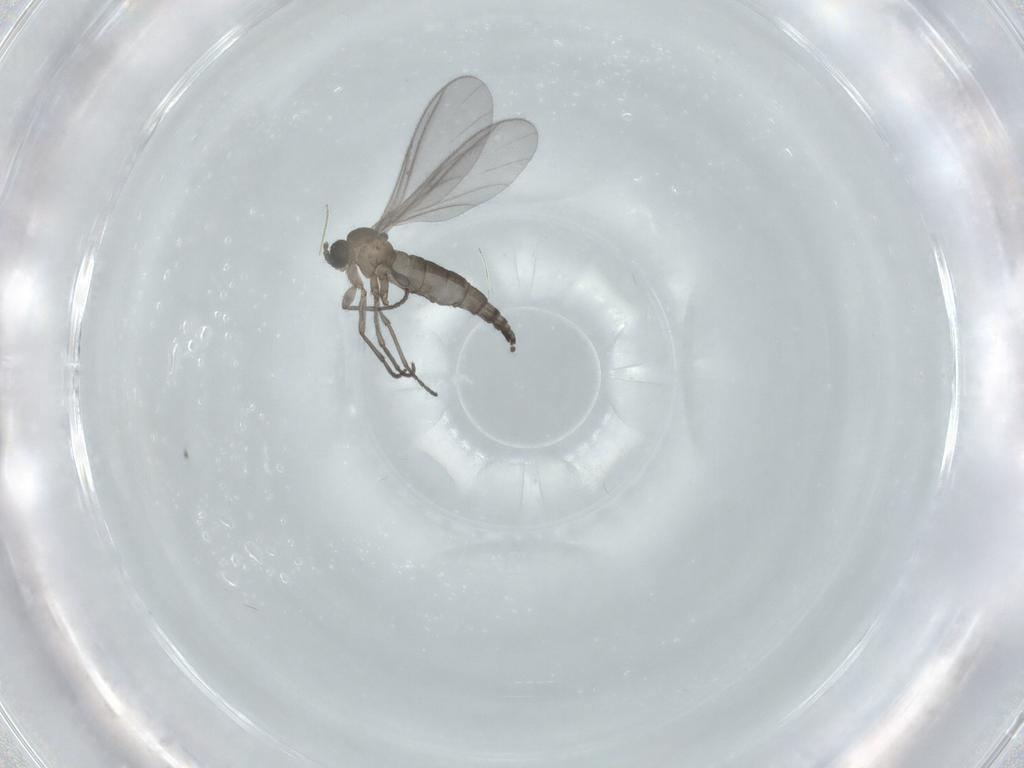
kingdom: Animalia
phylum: Arthropoda
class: Insecta
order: Diptera
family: Sciaridae
